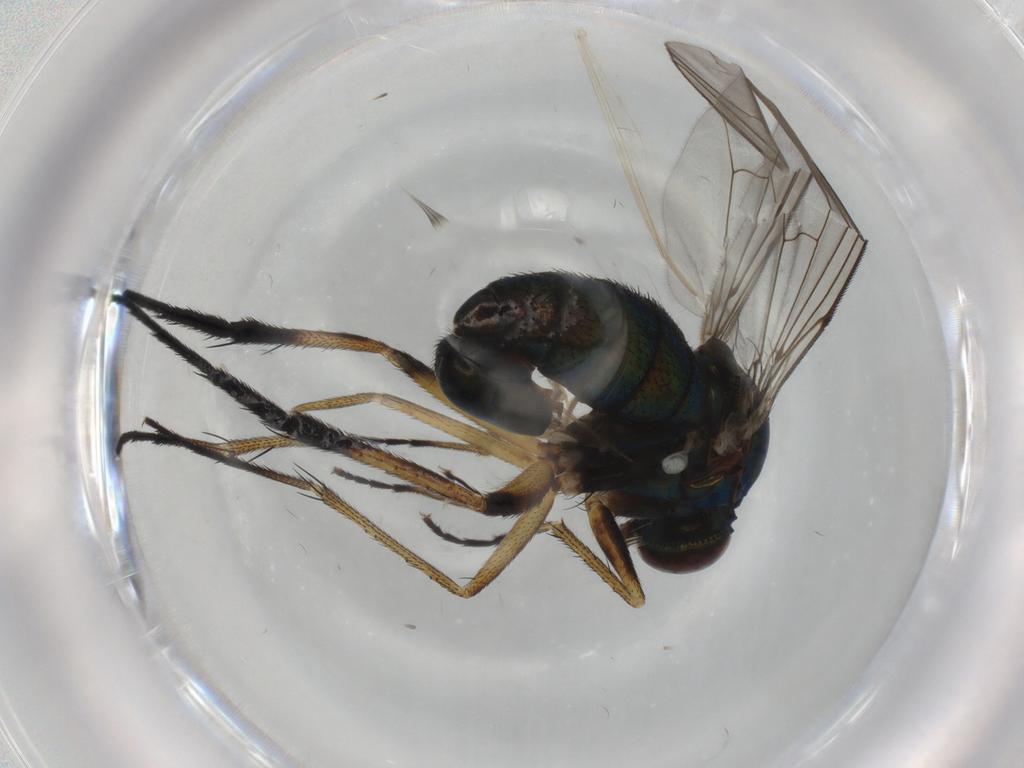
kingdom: Animalia
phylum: Arthropoda
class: Insecta
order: Diptera
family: Dolichopodidae
